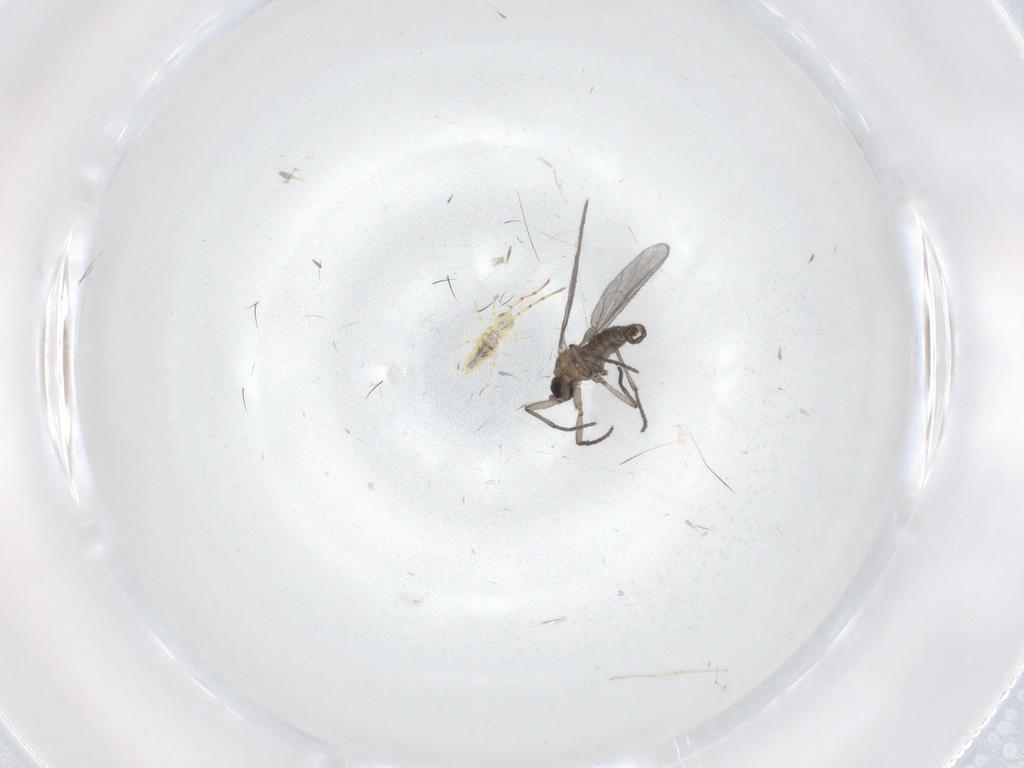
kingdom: Animalia
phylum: Arthropoda
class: Insecta
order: Diptera
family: Sciaridae
